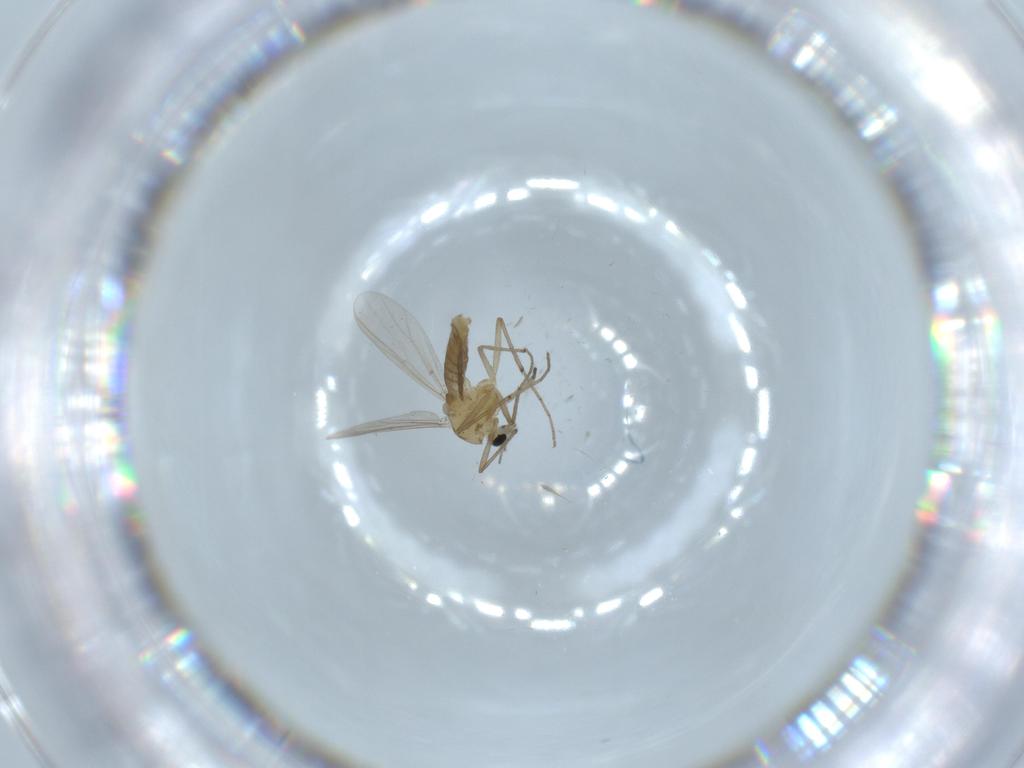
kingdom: Animalia
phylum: Arthropoda
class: Insecta
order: Diptera
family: Chironomidae
